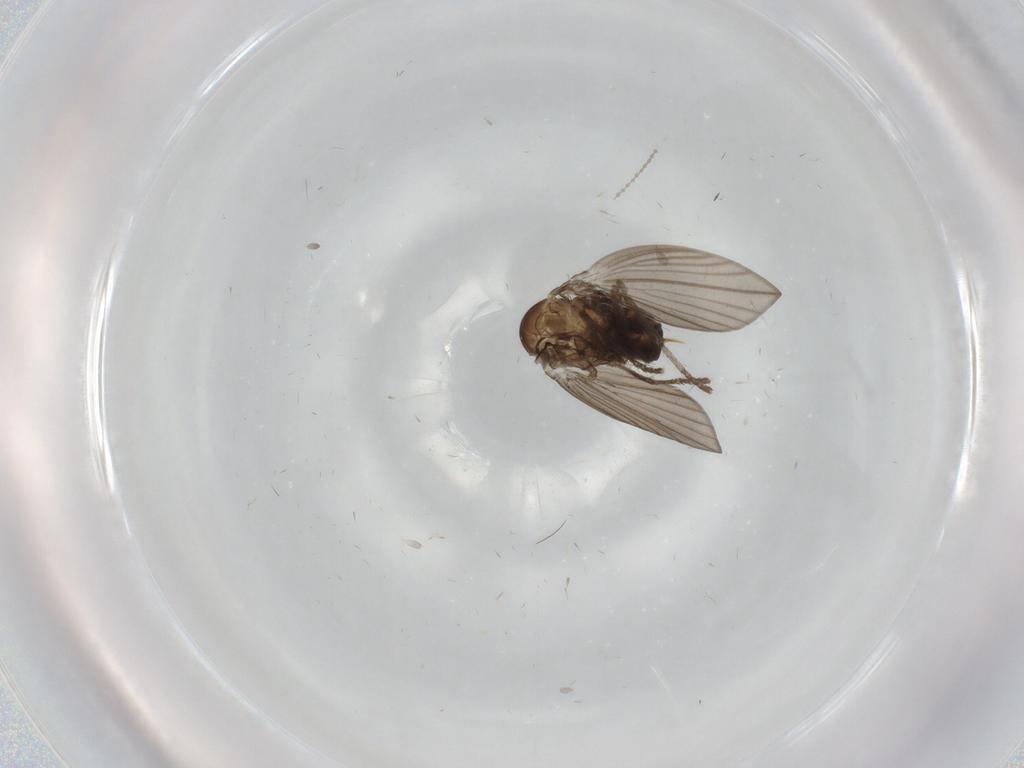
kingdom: Animalia
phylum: Arthropoda
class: Insecta
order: Diptera
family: Psychodidae
